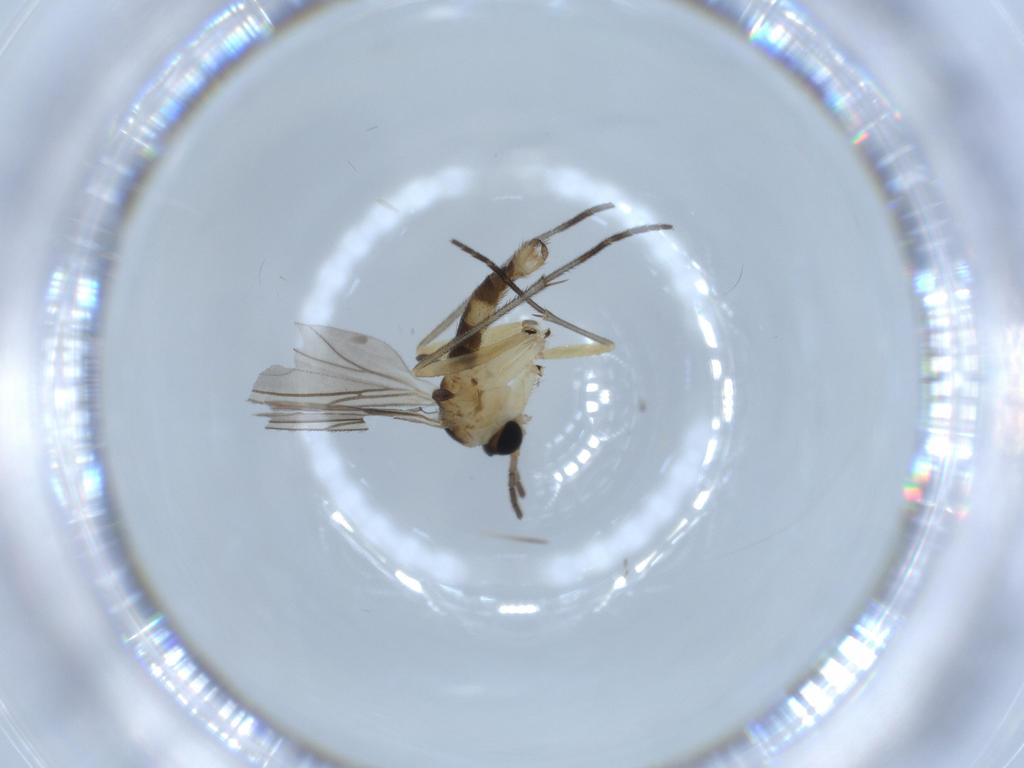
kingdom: Animalia
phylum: Arthropoda
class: Insecta
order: Diptera
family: Sciaridae
